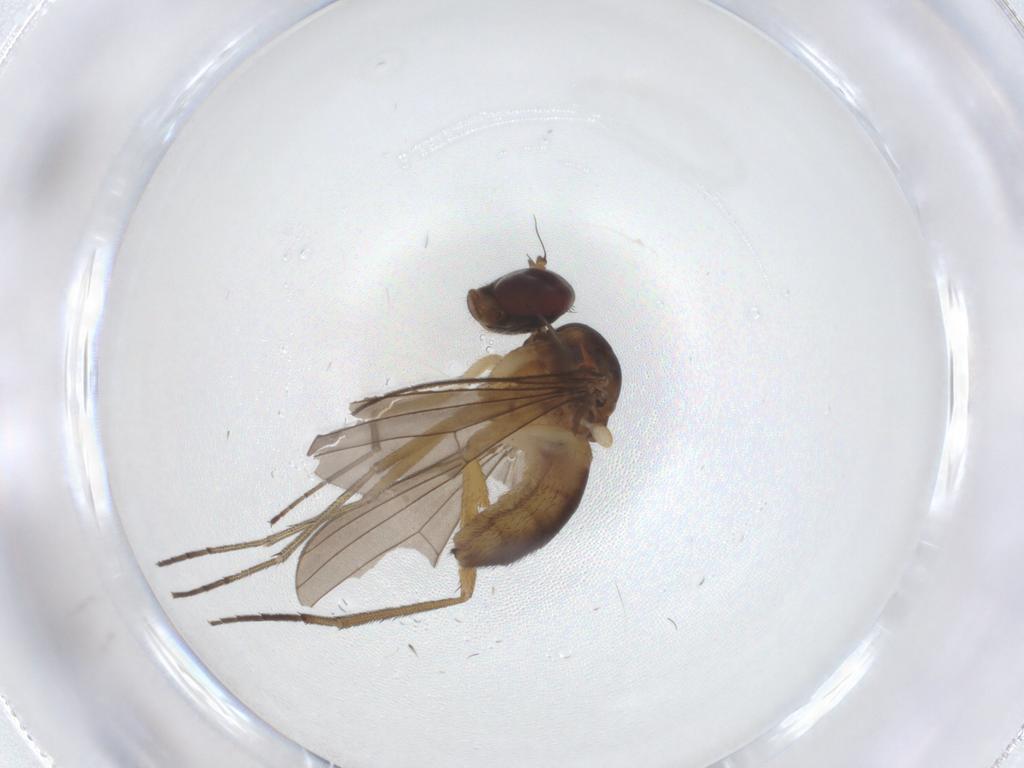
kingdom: Animalia
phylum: Arthropoda
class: Insecta
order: Diptera
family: Dolichopodidae
